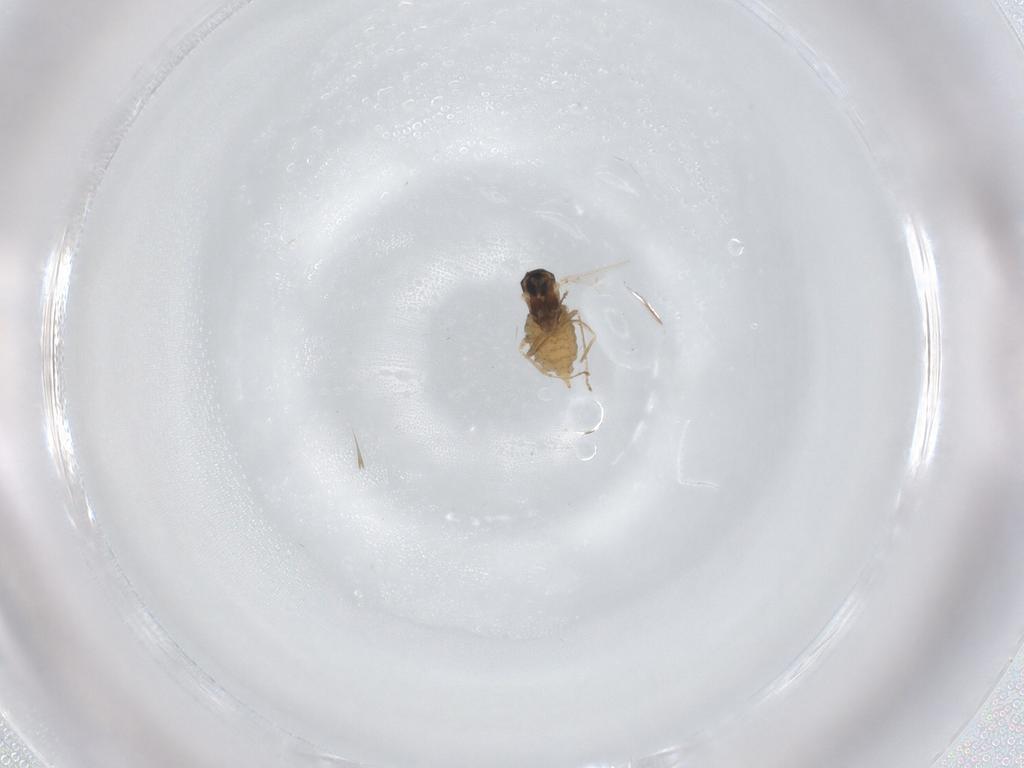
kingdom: Animalia
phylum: Arthropoda
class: Insecta
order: Diptera
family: Cecidomyiidae
